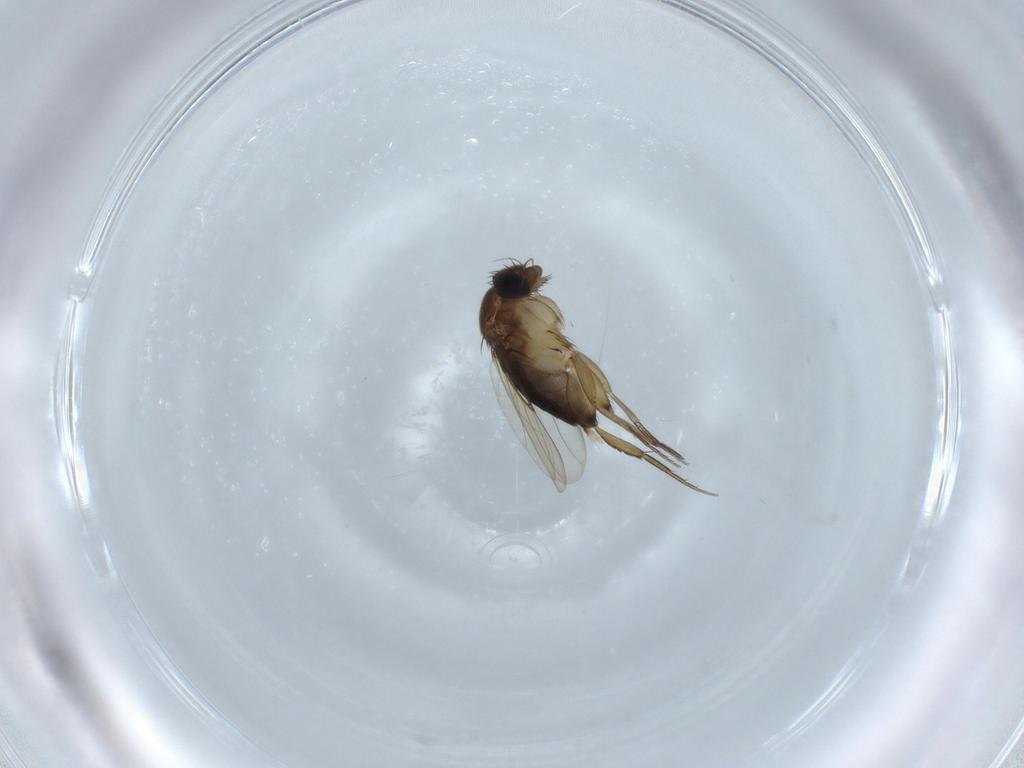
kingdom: Animalia
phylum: Arthropoda
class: Insecta
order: Diptera
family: Phoridae
